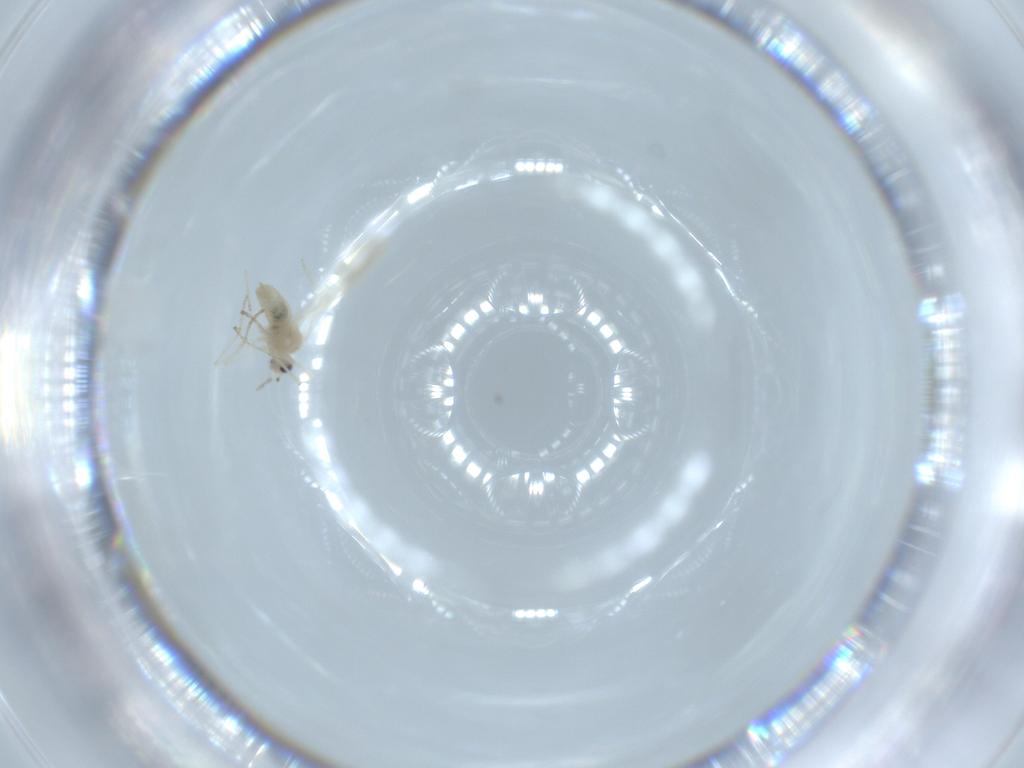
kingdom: Animalia
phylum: Arthropoda
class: Insecta
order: Diptera
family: Cecidomyiidae
